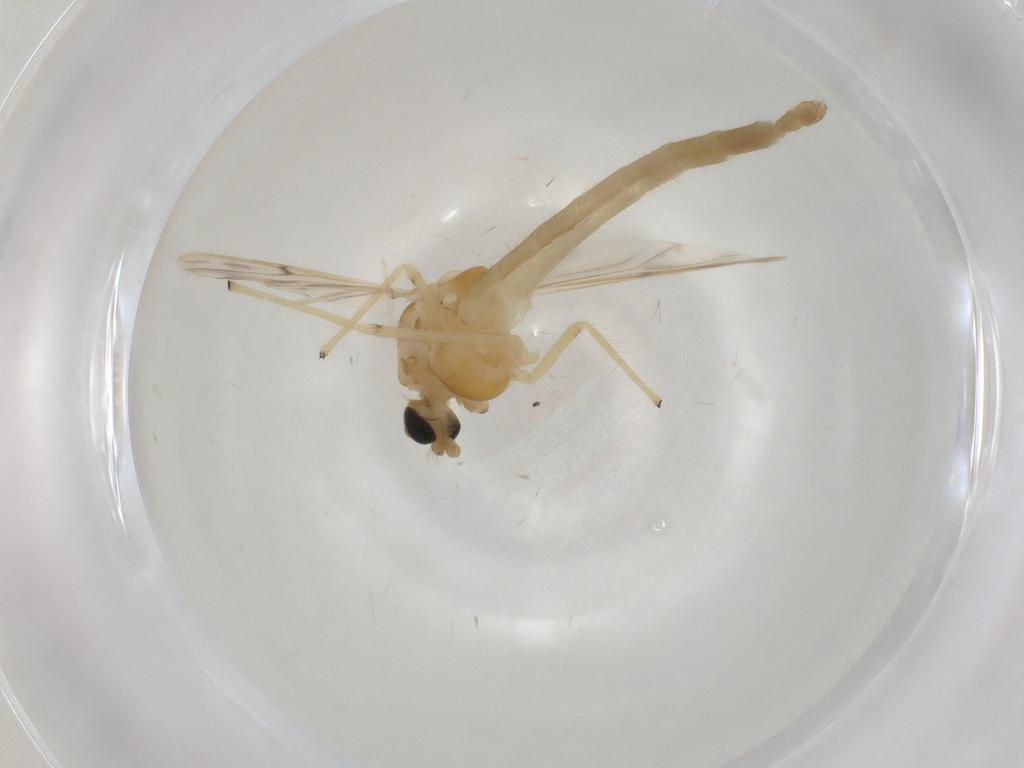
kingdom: Animalia
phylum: Arthropoda
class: Insecta
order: Diptera
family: Chironomidae
